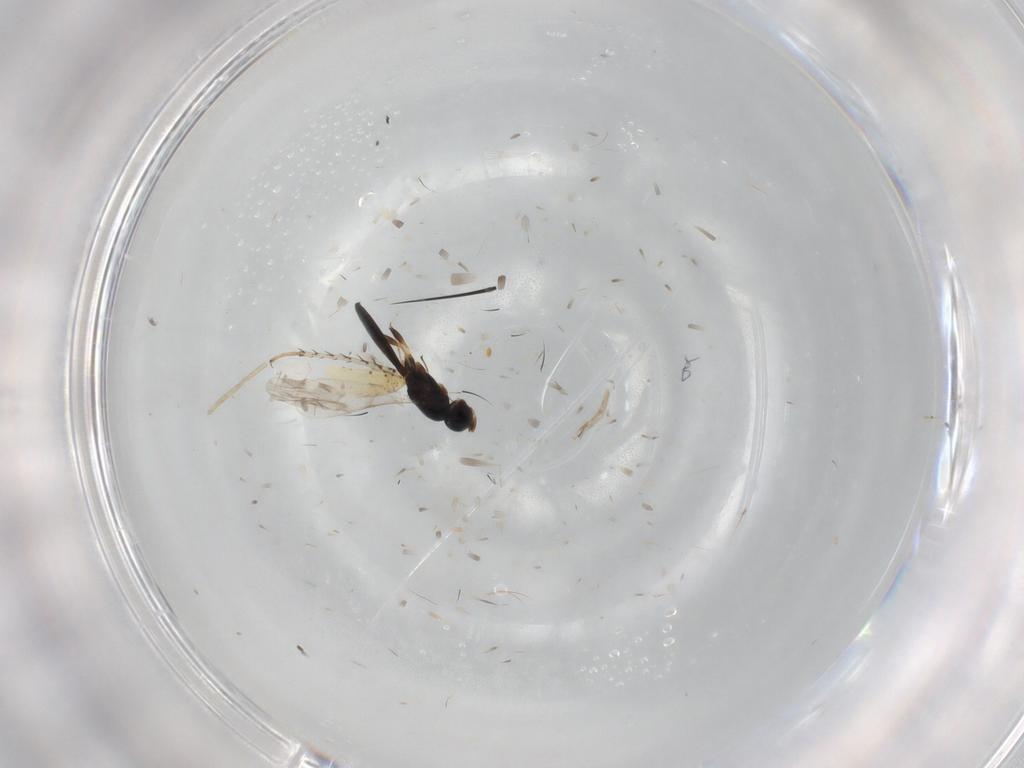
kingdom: Animalia
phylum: Arthropoda
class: Insecta
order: Hymenoptera
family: Scelionidae
